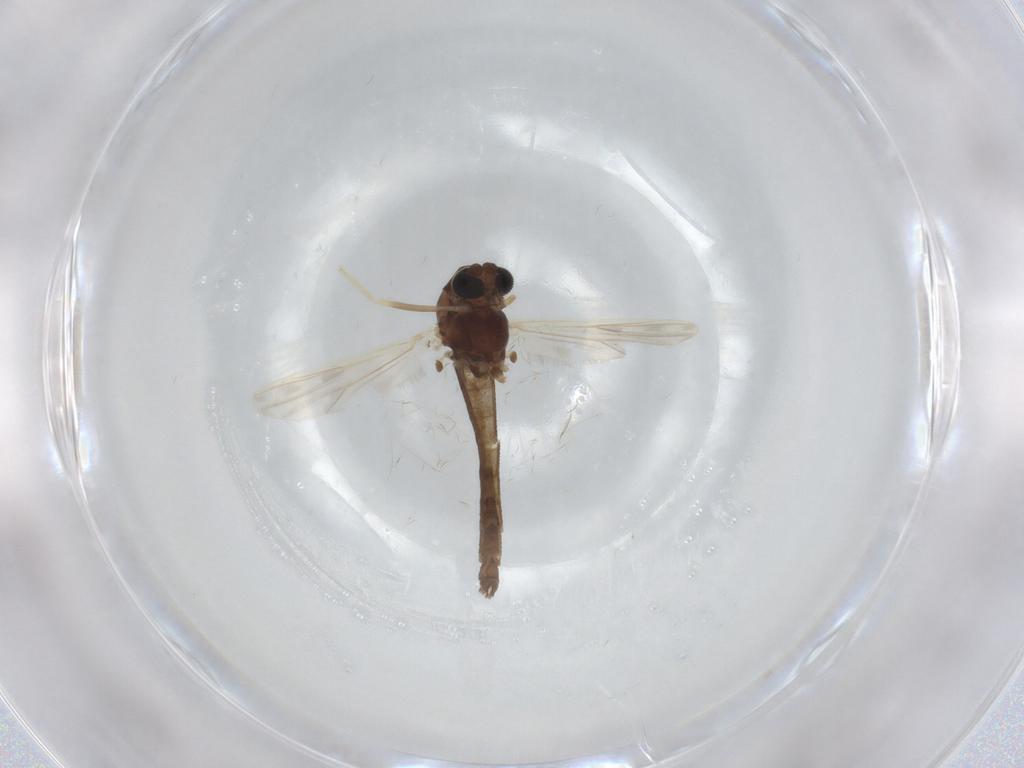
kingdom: Animalia
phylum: Arthropoda
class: Insecta
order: Diptera
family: Chironomidae
